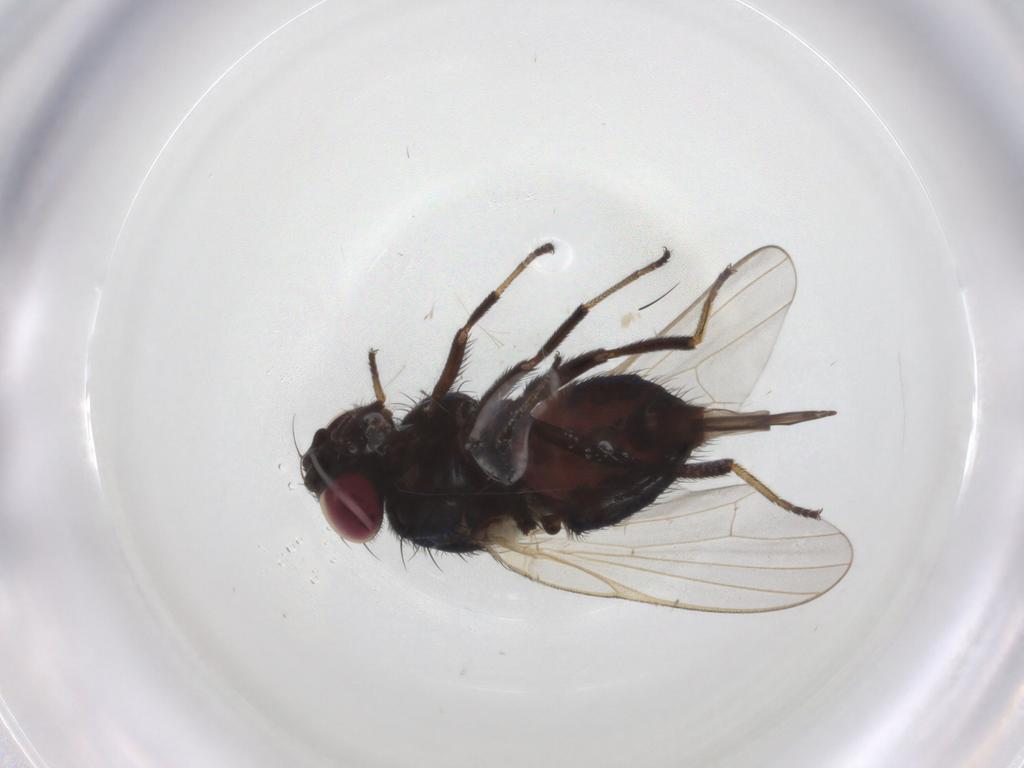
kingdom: Animalia
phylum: Arthropoda
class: Insecta
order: Diptera
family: Lonchaeidae
